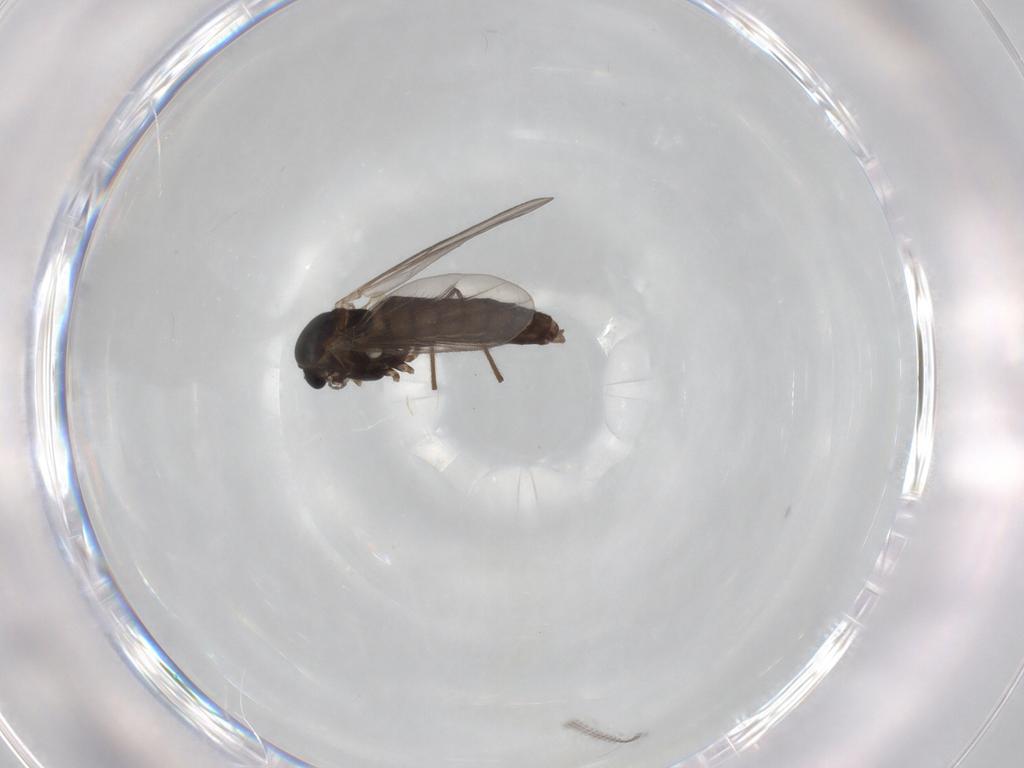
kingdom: Animalia
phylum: Arthropoda
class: Insecta
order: Diptera
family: Chironomidae
